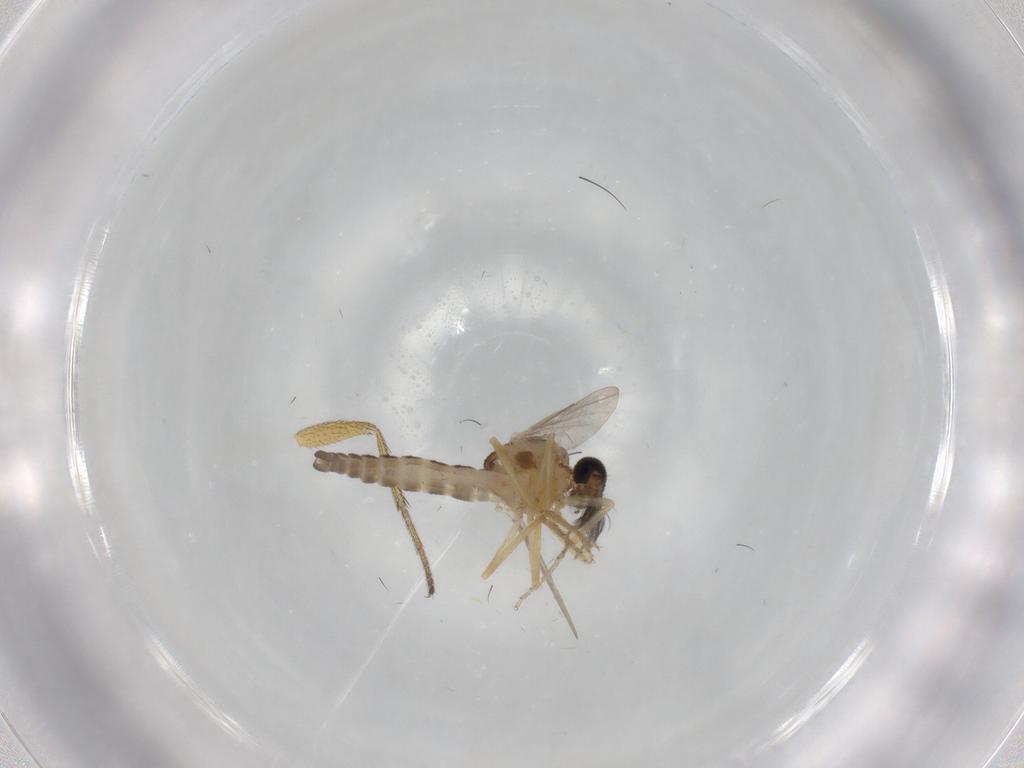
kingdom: Animalia
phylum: Arthropoda
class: Insecta
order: Diptera
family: Ceratopogonidae
